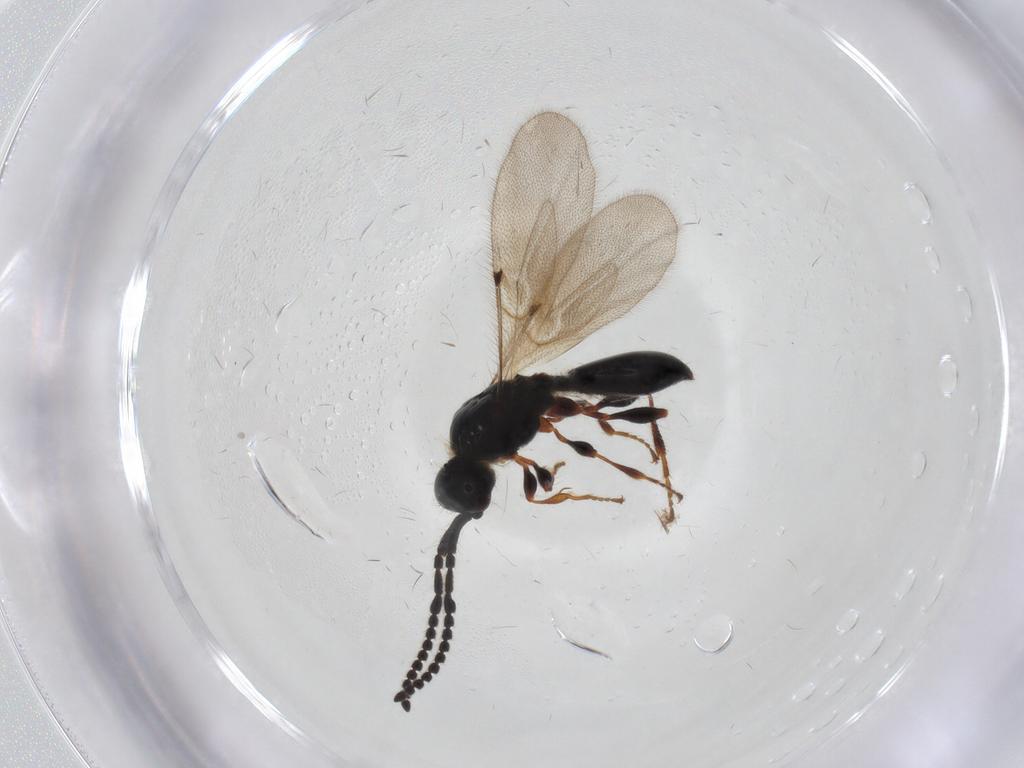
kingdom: Animalia
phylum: Arthropoda
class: Insecta
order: Hymenoptera
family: Diapriidae
